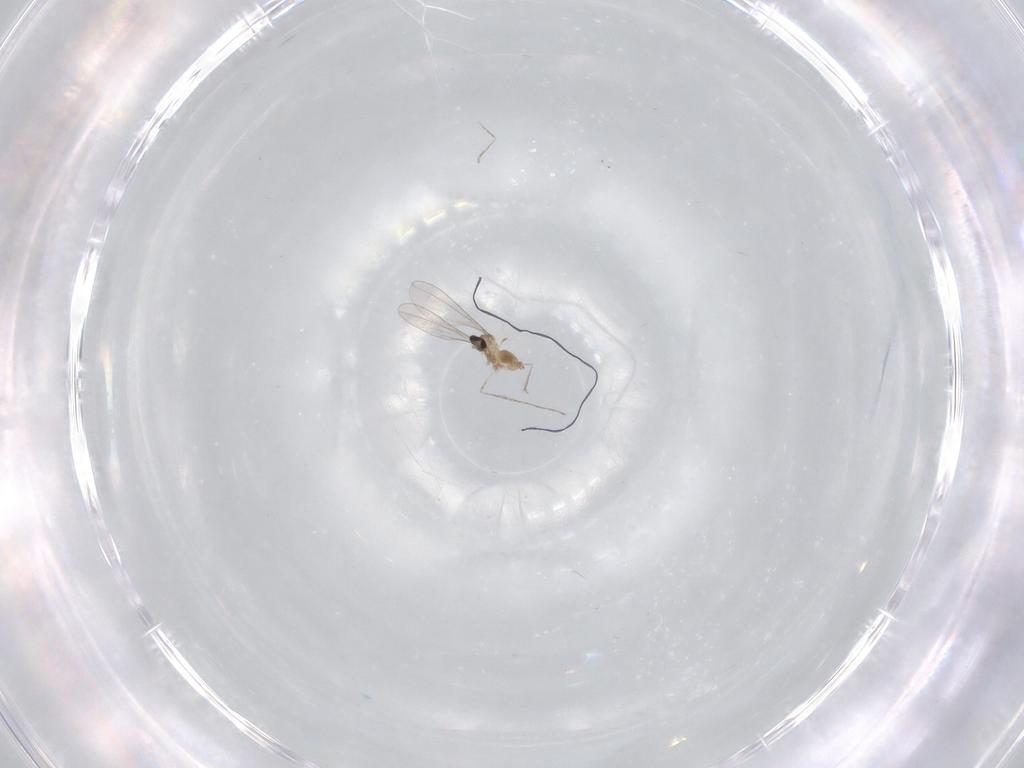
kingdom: Animalia
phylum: Arthropoda
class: Insecta
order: Diptera
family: Cecidomyiidae
